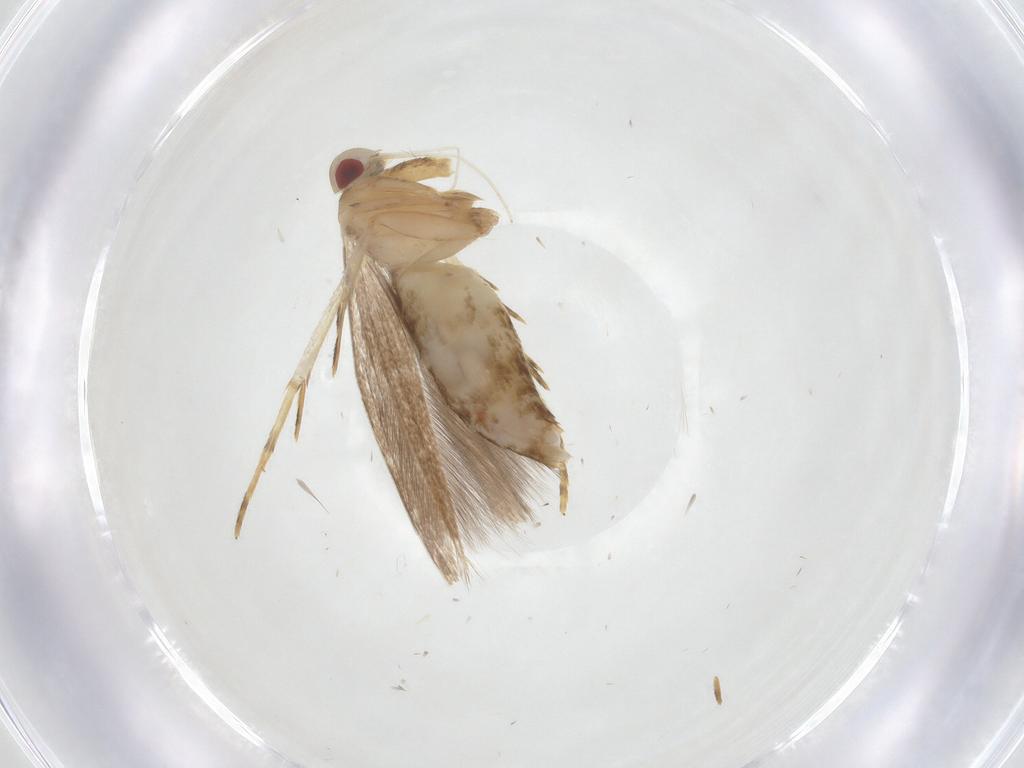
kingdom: Animalia
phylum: Arthropoda
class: Insecta
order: Lepidoptera
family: Cosmopterigidae
